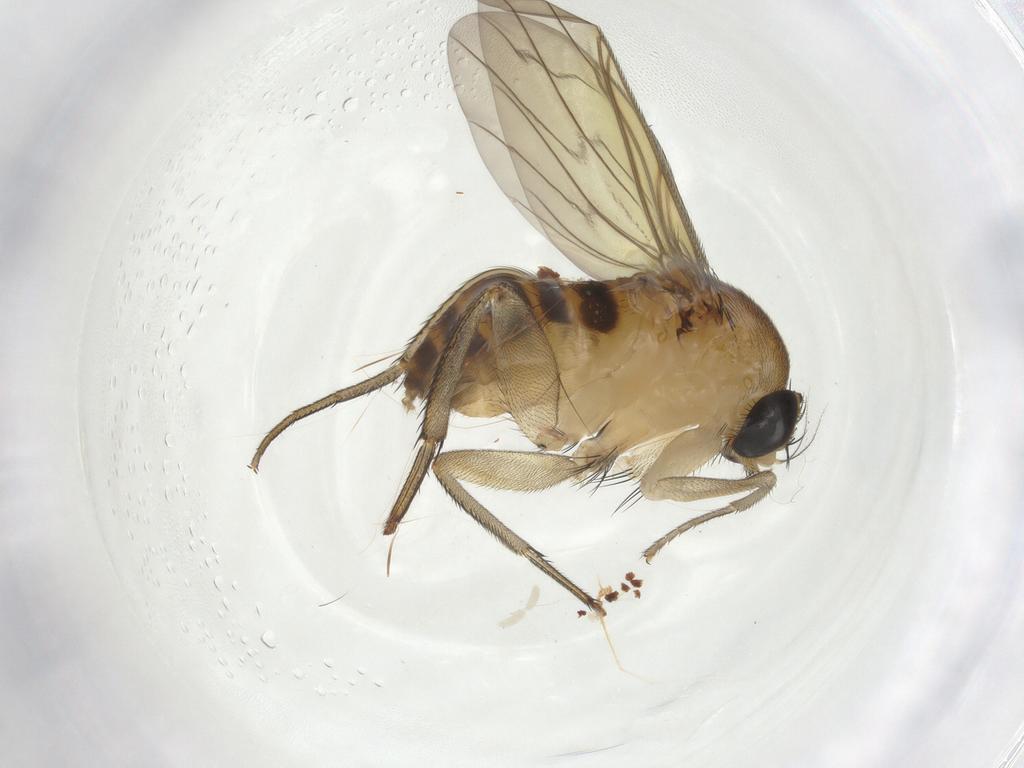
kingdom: Animalia
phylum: Arthropoda
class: Insecta
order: Diptera
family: Phoridae
